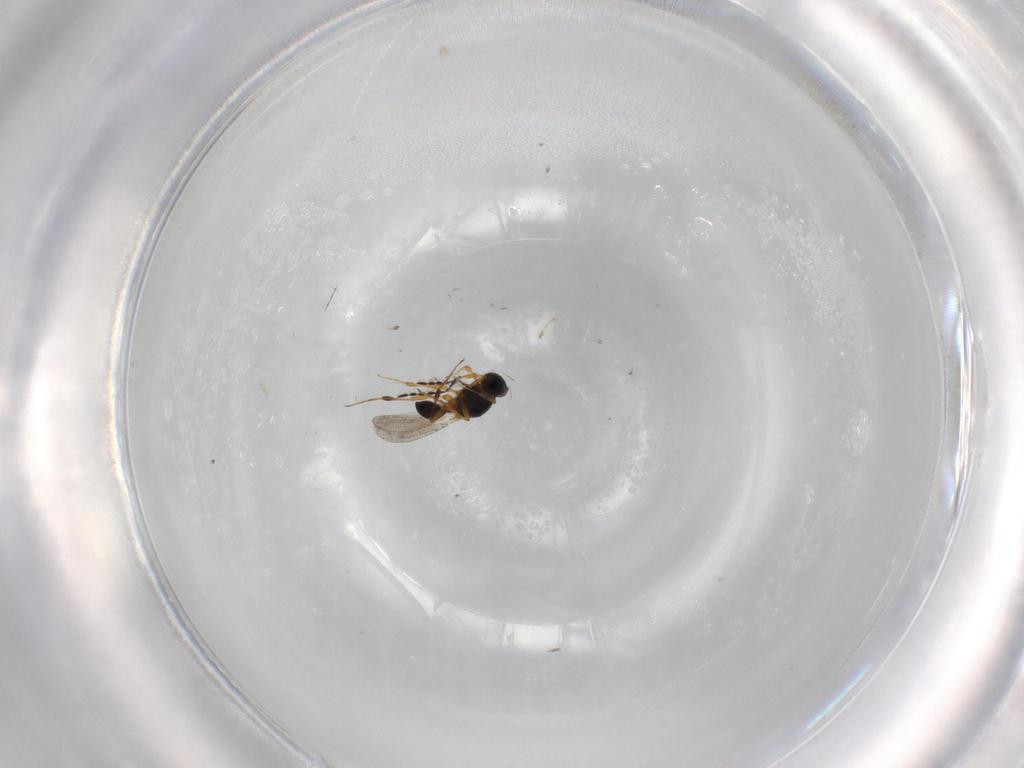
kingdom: Animalia
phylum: Arthropoda
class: Insecta
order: Hymenoptera
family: Platygastridae
